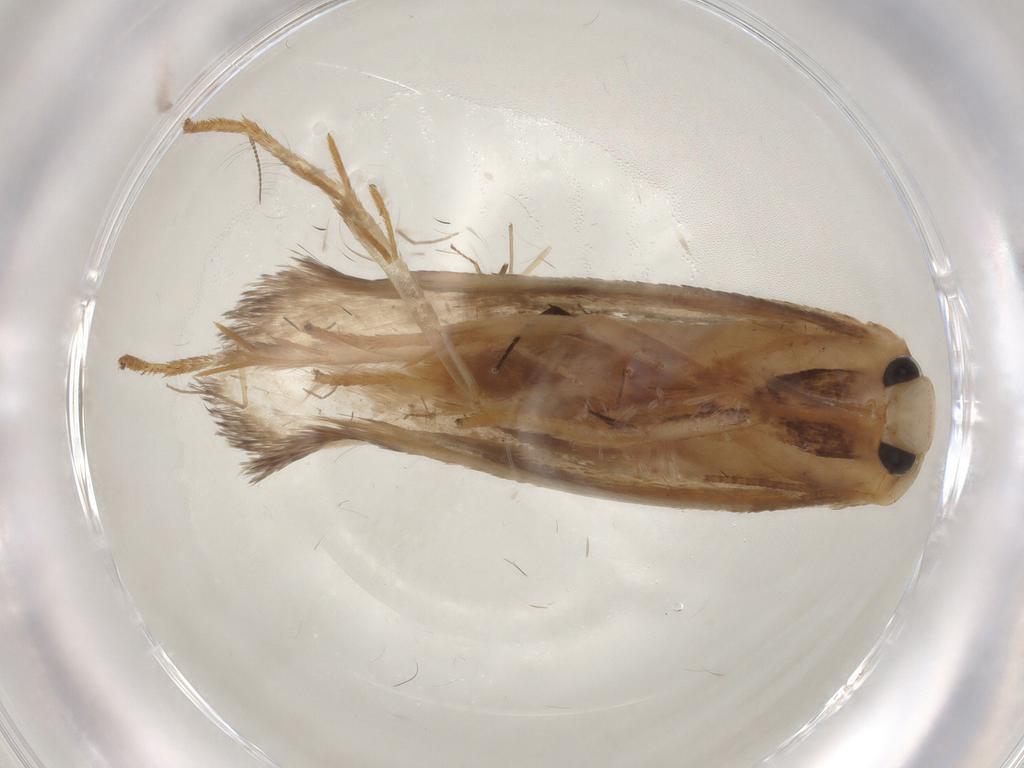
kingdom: Animalia
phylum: Arthropoda
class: Insecta
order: Lepidoptera
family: Geometridae
